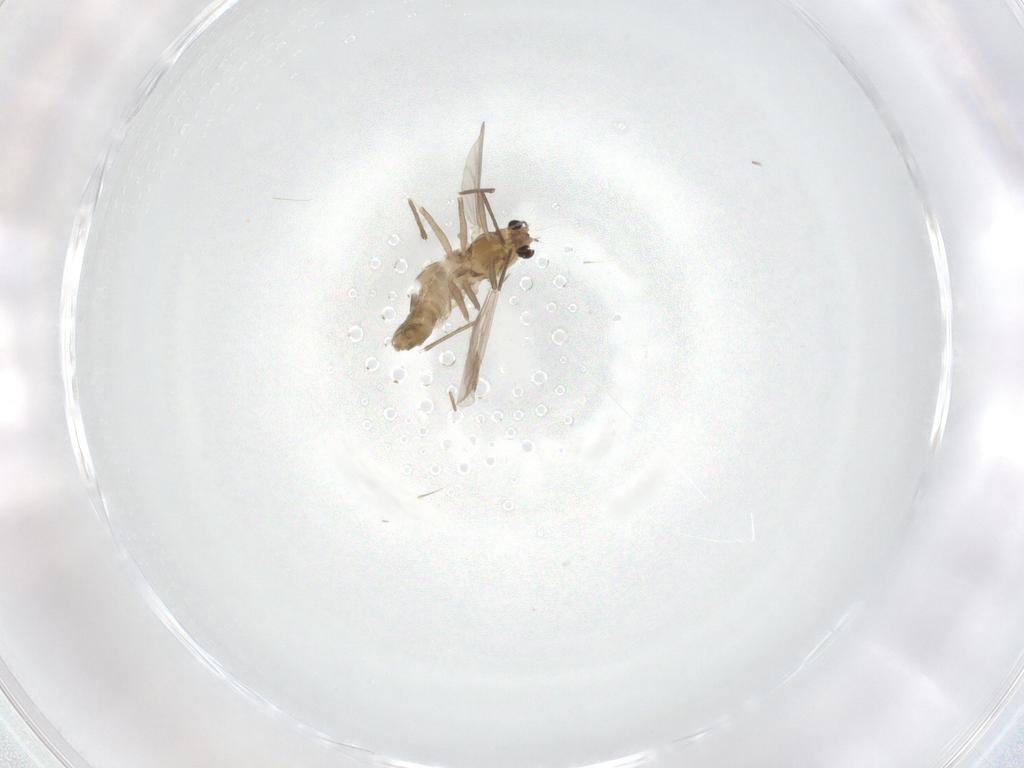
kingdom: Animalia
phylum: Arthropoda
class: Insecta
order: Diptera
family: Chironomidae
